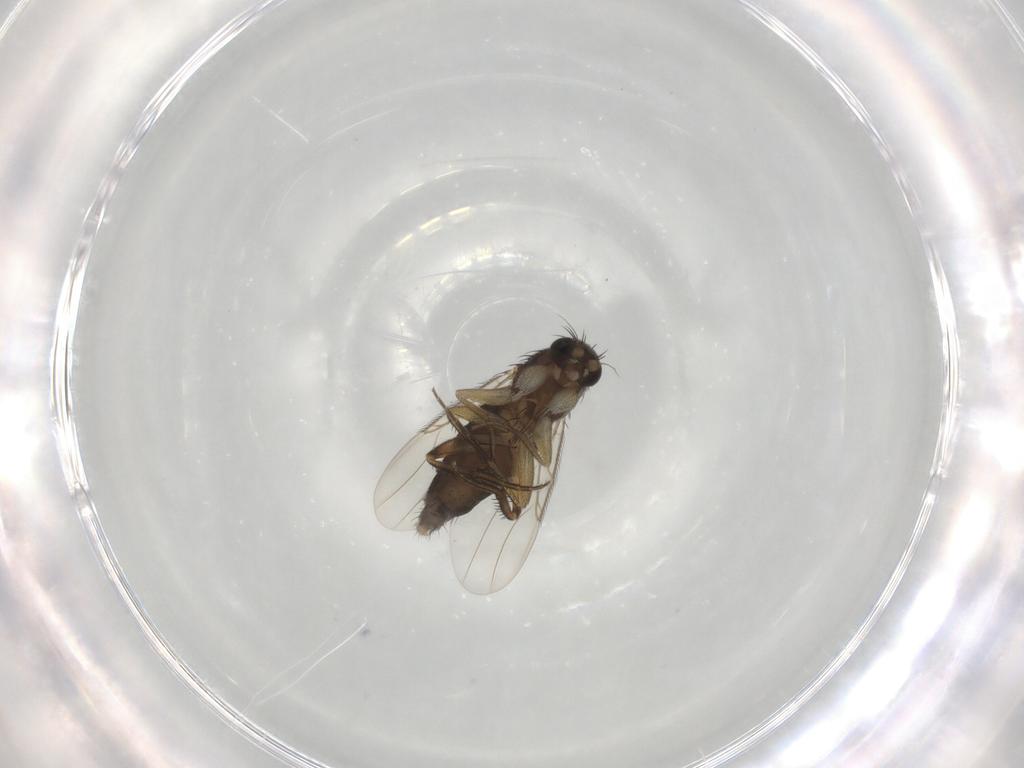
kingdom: Animalia
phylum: Arthropoda
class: Insecta
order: Diptera
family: Phoridae
